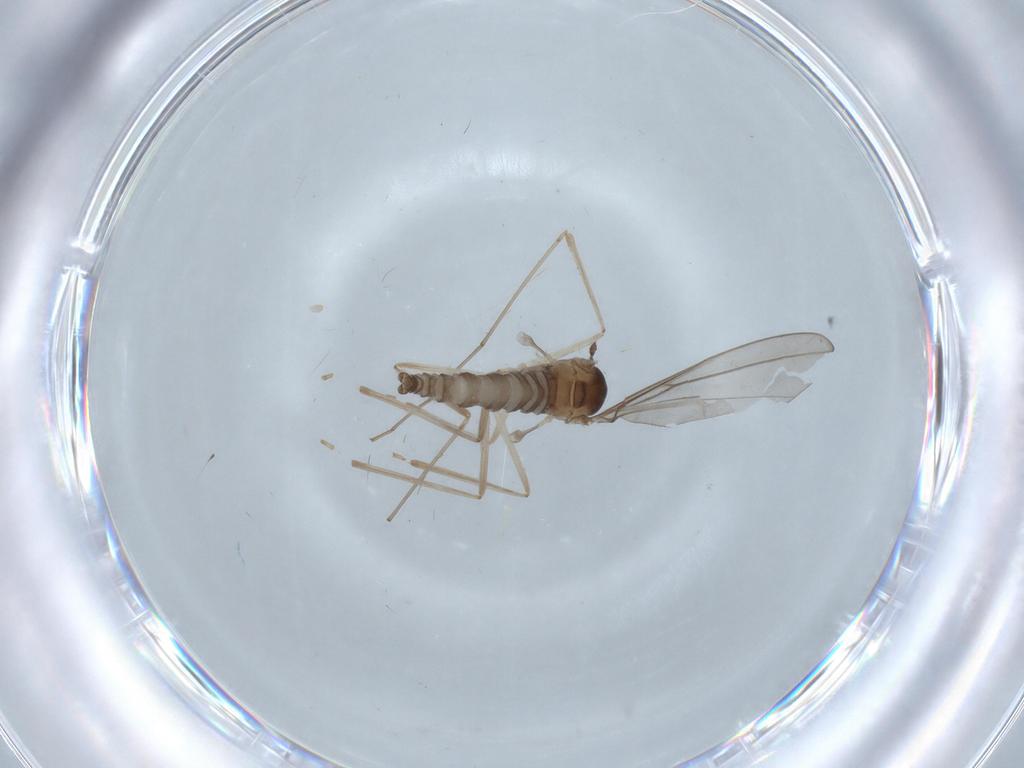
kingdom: Animalia
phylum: Arthropoda
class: Insecta
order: Diptera
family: Cecidomyiidae
